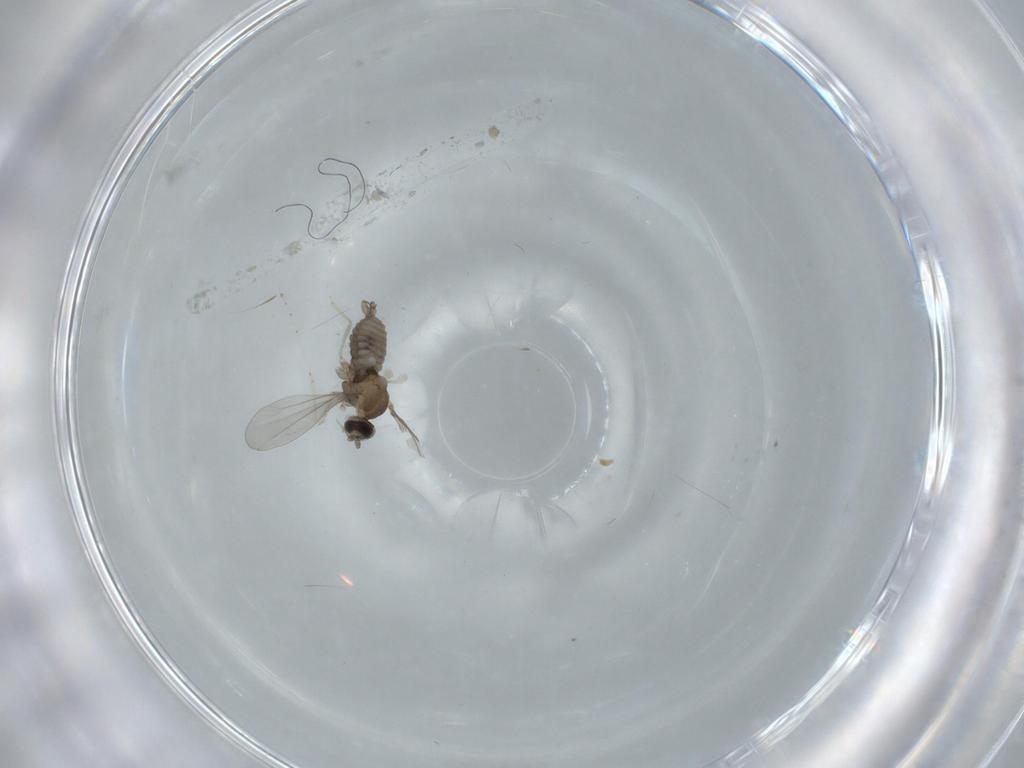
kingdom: Animalia
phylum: Arthropoda
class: Insecta
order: Diptera
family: Cecidomyiidae
